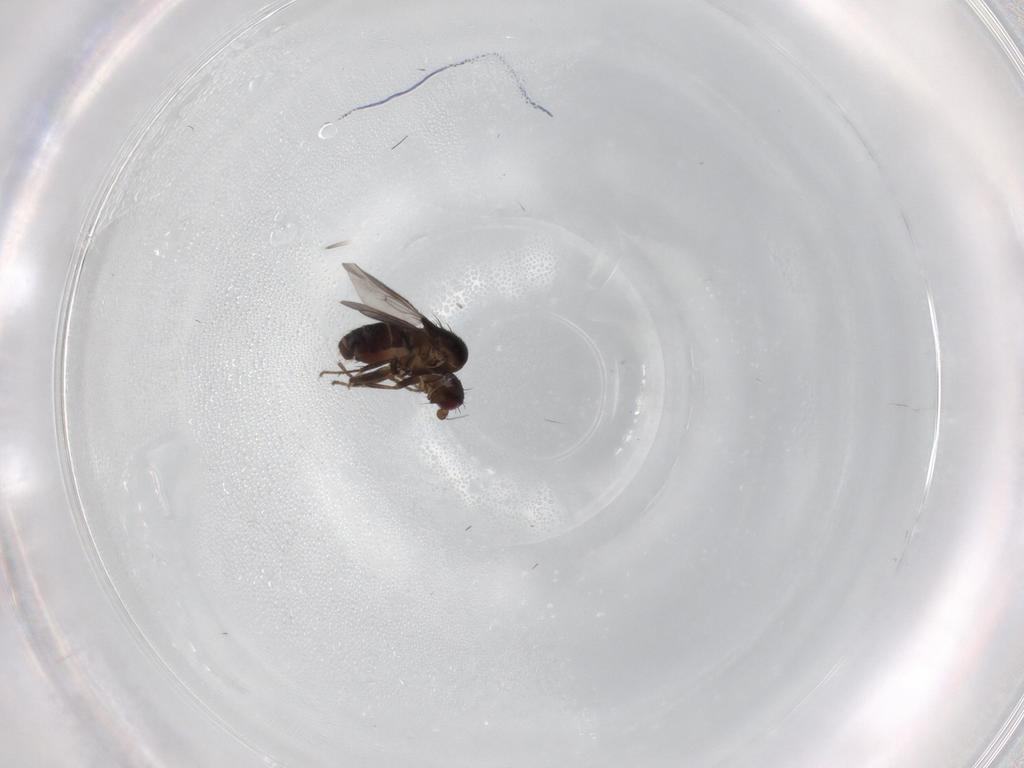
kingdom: Animalia
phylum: Arthropoda
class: Insecta
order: Diptera
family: Sphaeroceridae
